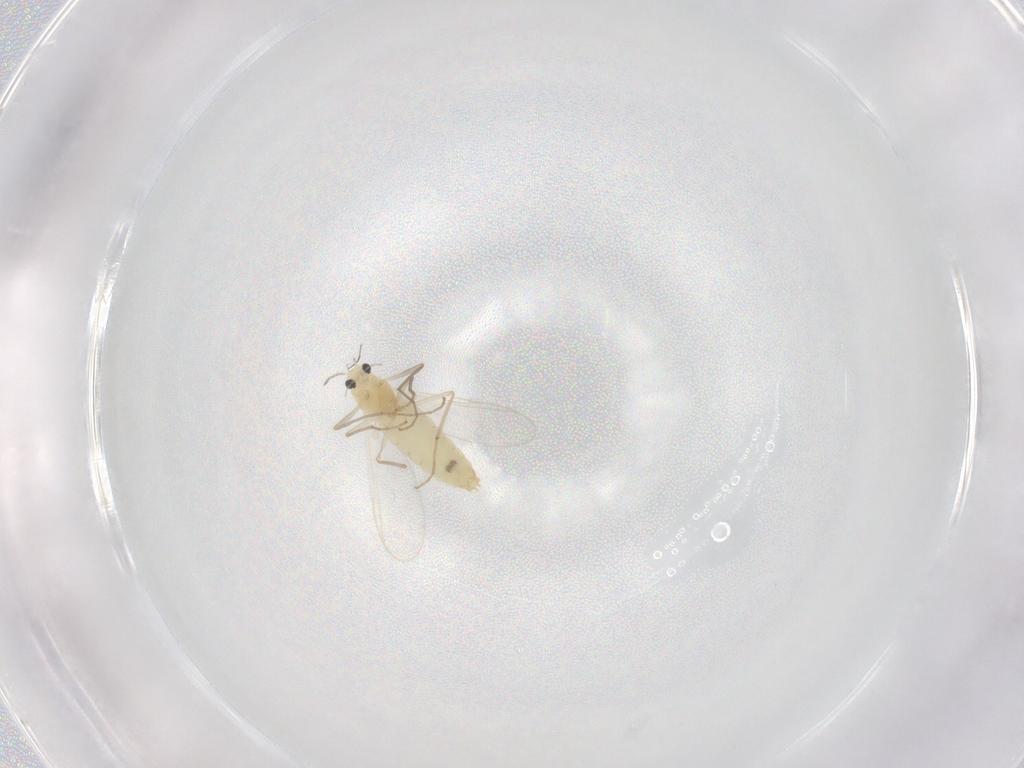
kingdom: Animalia
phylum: Arthropoda
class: Insecta
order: Diptera
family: Chironomidae
